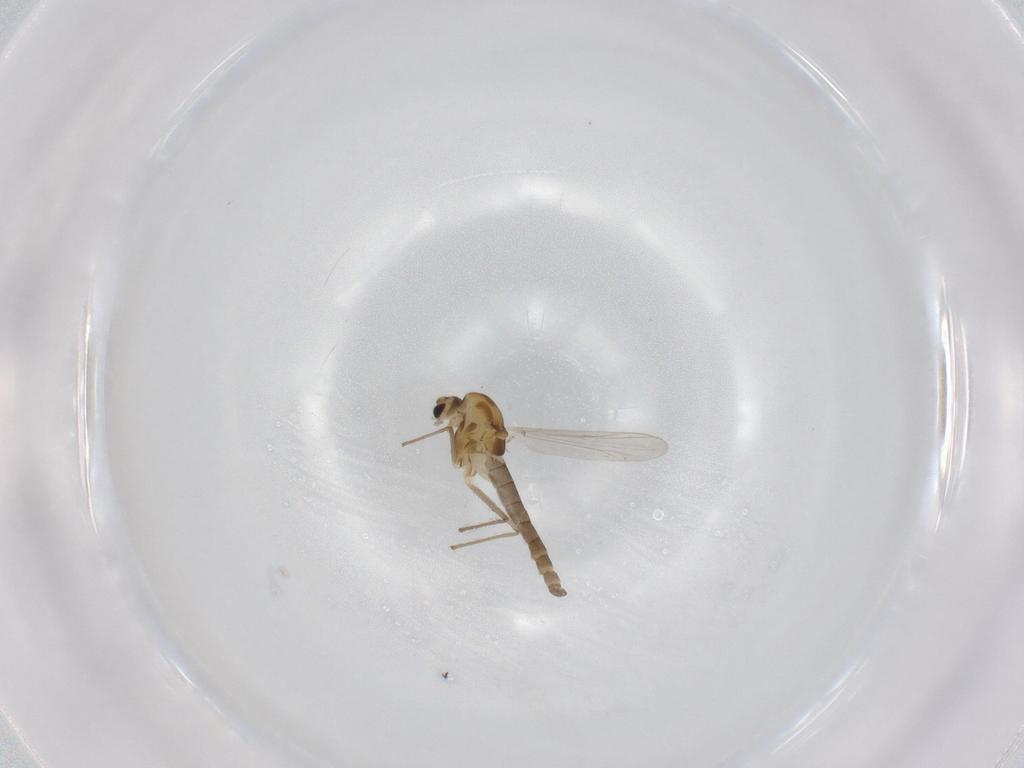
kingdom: Animalia
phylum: Arthropoda
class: Insecta
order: Diptera
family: Chironomidae
